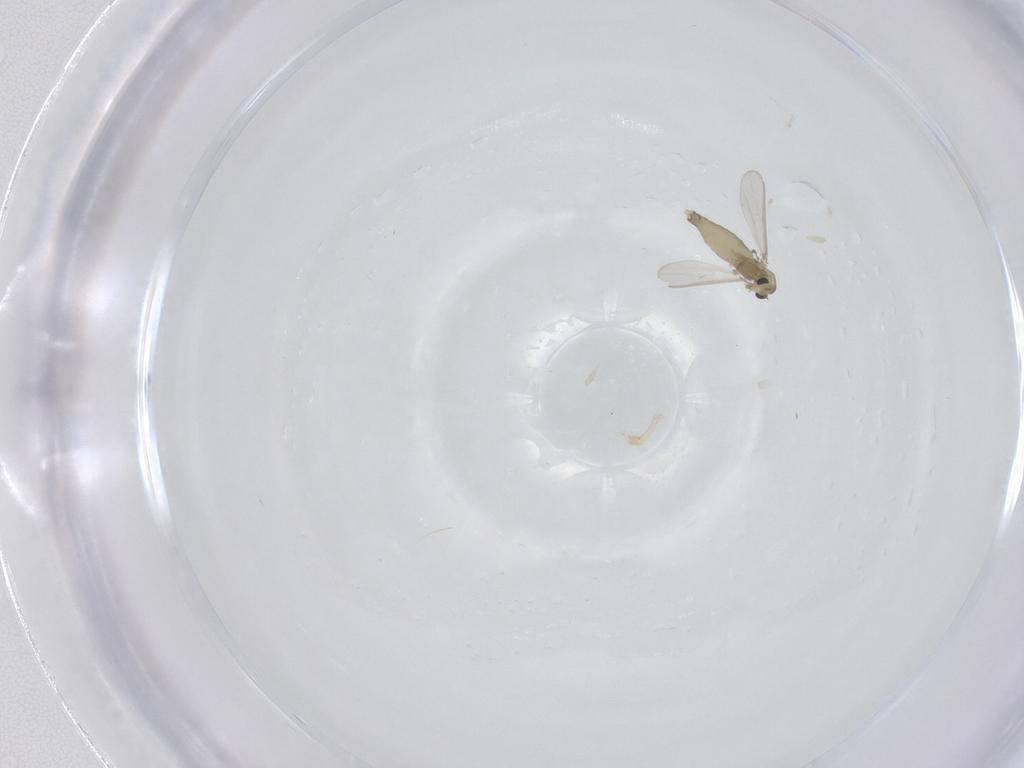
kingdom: Animalia
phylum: Arthropoda
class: Insecta
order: Diptera
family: Chironomidae
